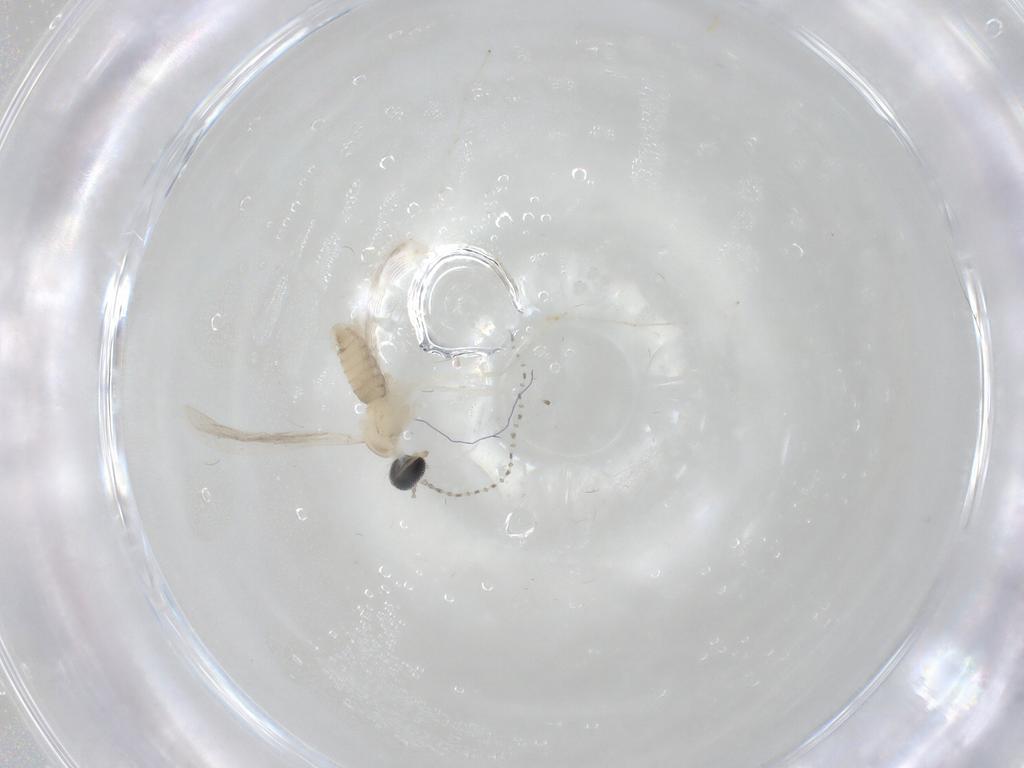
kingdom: Animalia
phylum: Arthropoda
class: Insecta
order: Diptera
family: Cecidomyiidae
